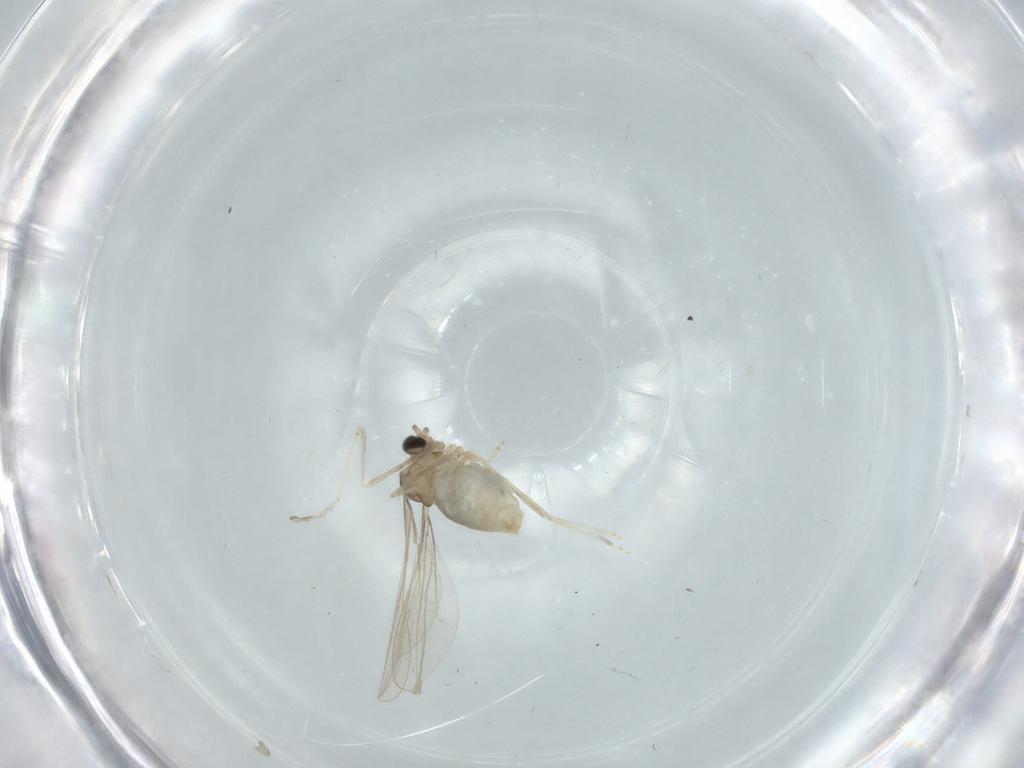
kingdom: Animalia
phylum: Arthropoda
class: Insecta
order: Diptera
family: Cecidomyiidae
